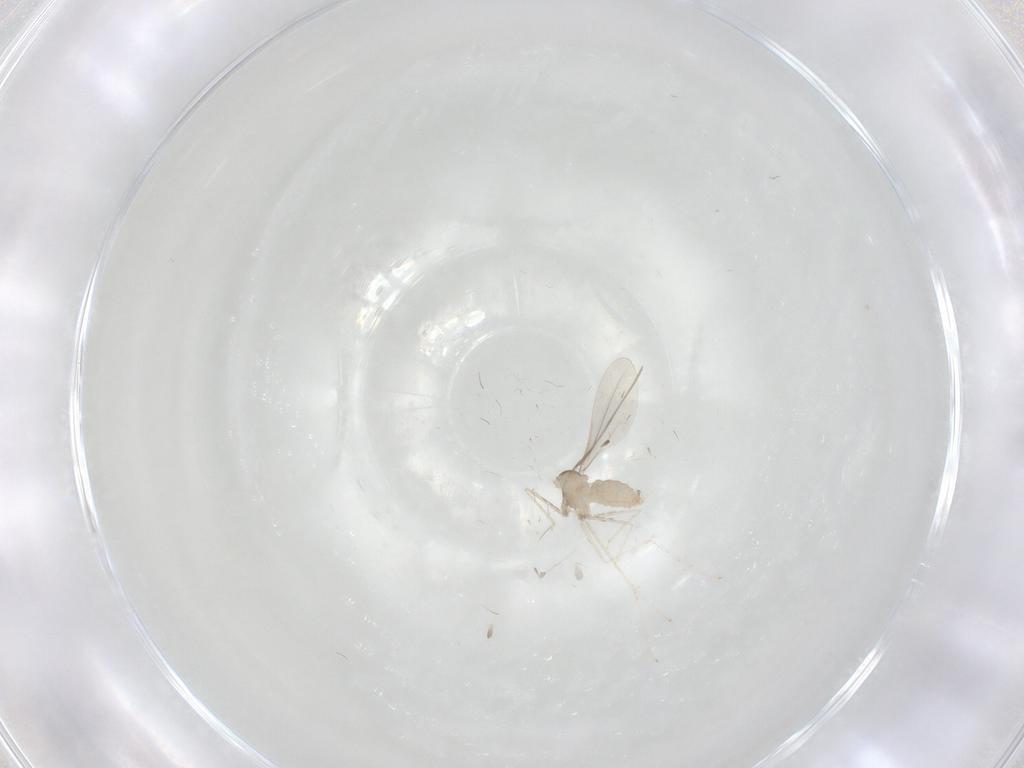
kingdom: Animalia
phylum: Arthropoda
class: Insecta
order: Diptera
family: Cecidomyiidae
